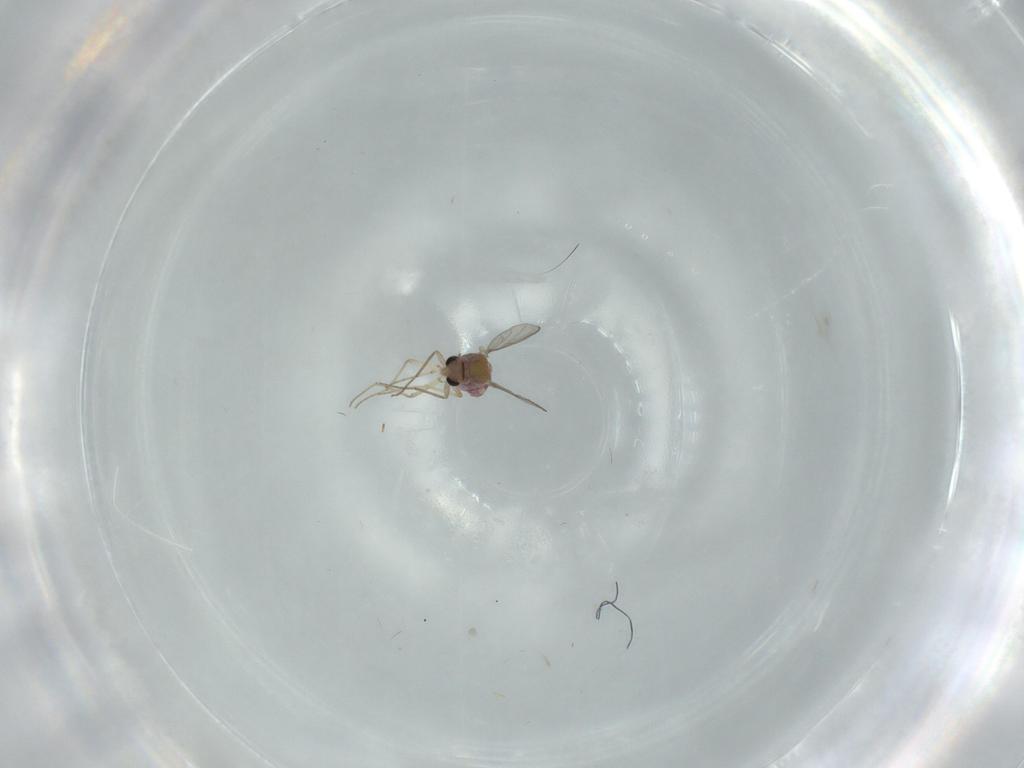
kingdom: Animalia
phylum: Arthropoda
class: Insecta
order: Diptera
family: Chironomidae
